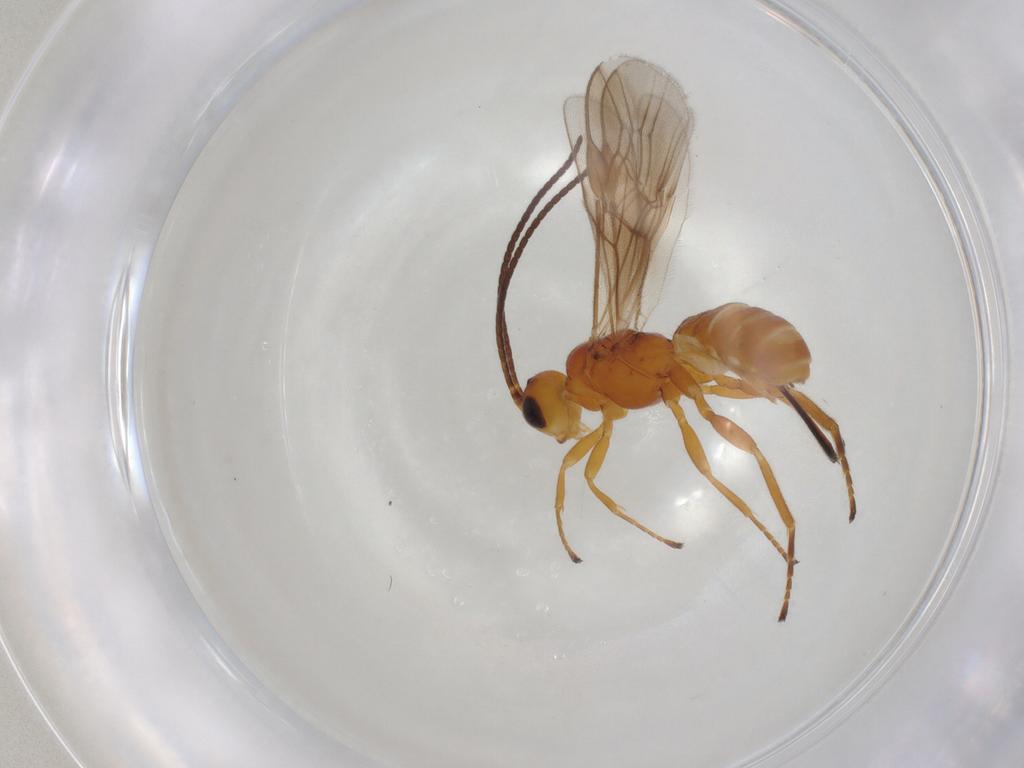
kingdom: Animalia
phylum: Arthropoda
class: Insecta
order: Hymenoptera
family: Braconidae
